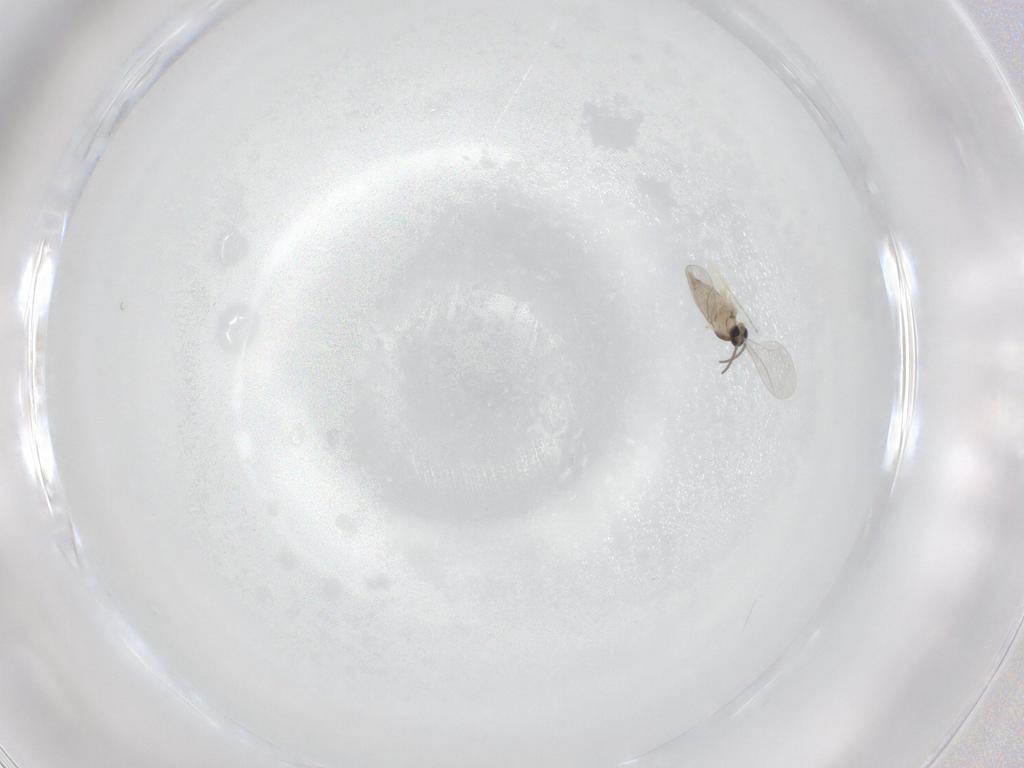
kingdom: Animalia
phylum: Arthropoda
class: Insecta
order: Diptera
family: Cecidomyiidae
